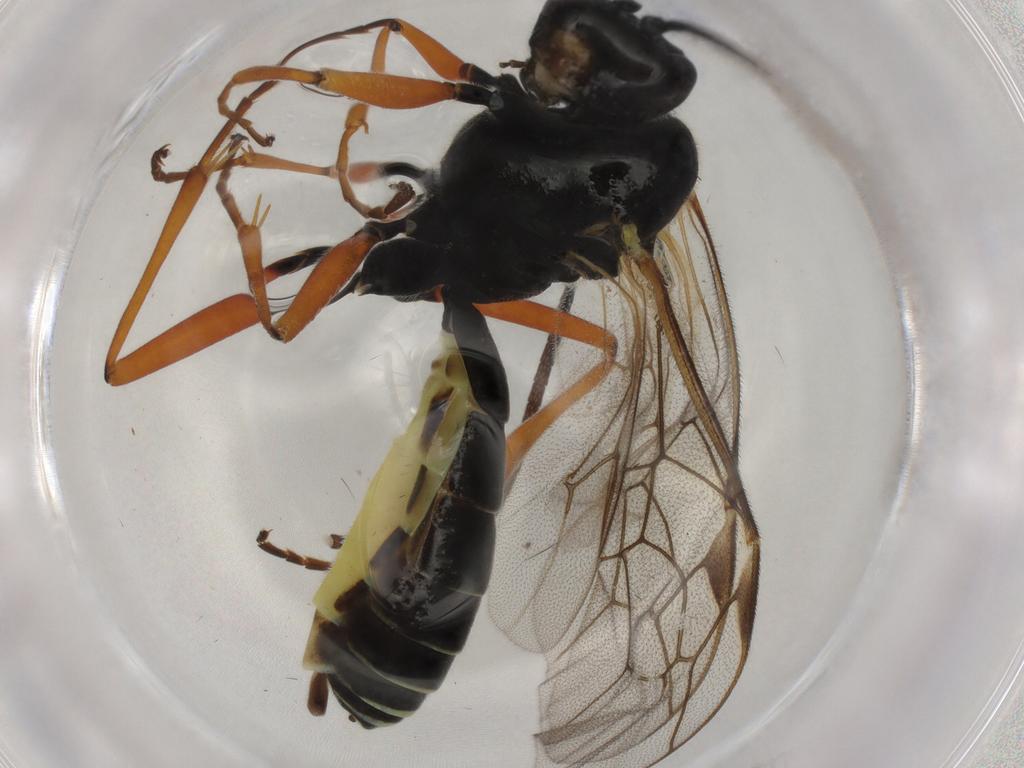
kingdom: Animalia
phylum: Arthropoda
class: Insecta
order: Hymenoptera
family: Ichneumonidae
